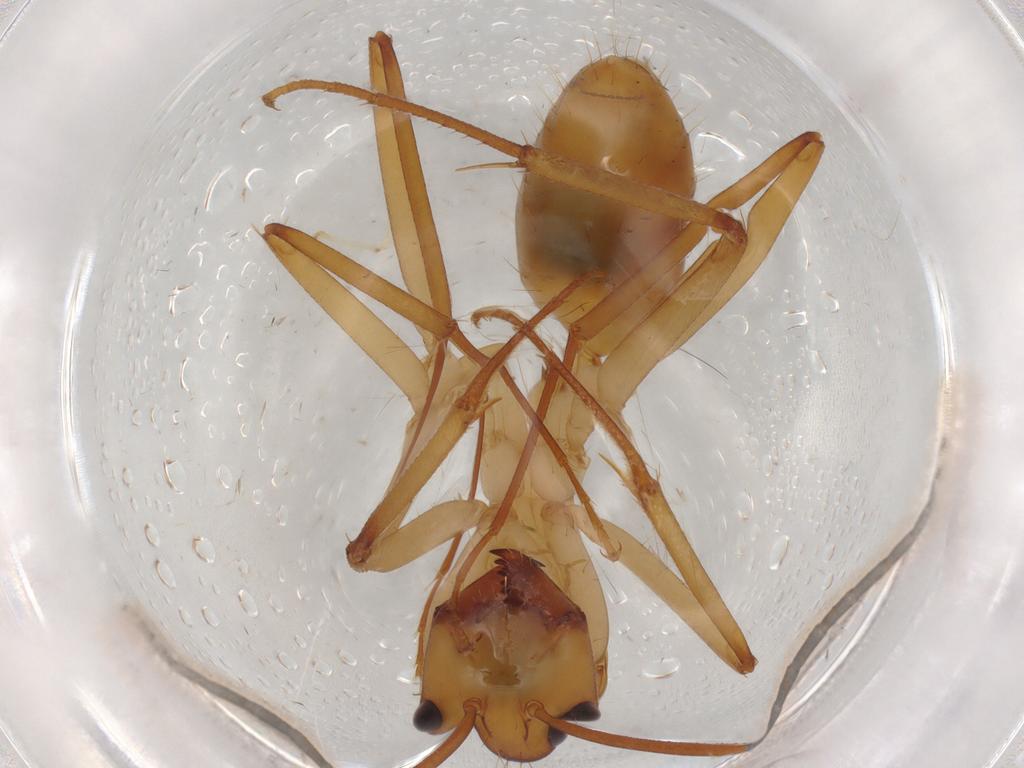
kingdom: Animalia
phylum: Arthropoda
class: Insecta
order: Hymenoptera
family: Formicidae
